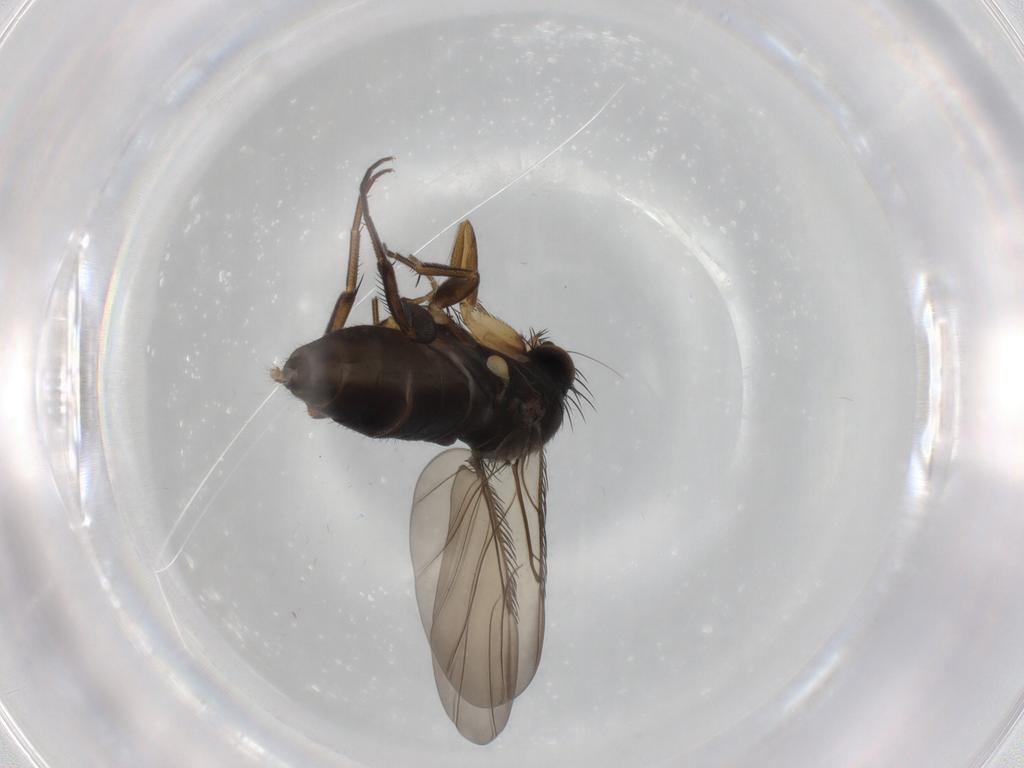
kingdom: Animalia
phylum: Arthropoda
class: Insecta
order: Diptera
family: Phoridae
